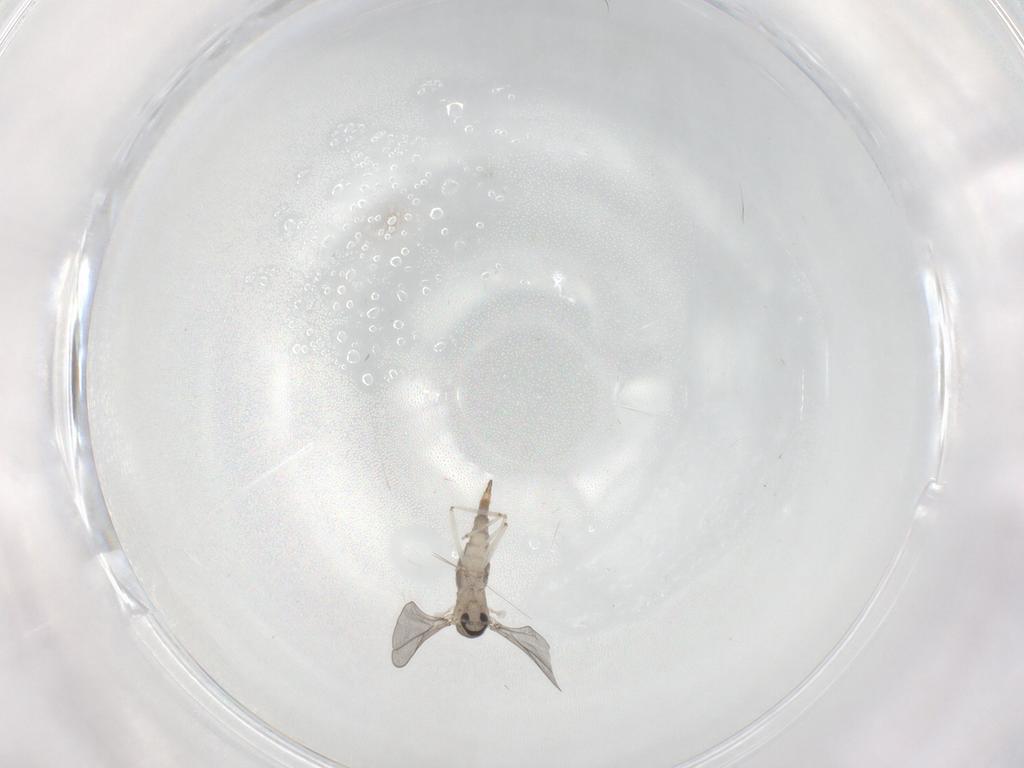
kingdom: Animalia
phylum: Arthropoda
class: Insecta
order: Diptera
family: Cecidomyiidae
